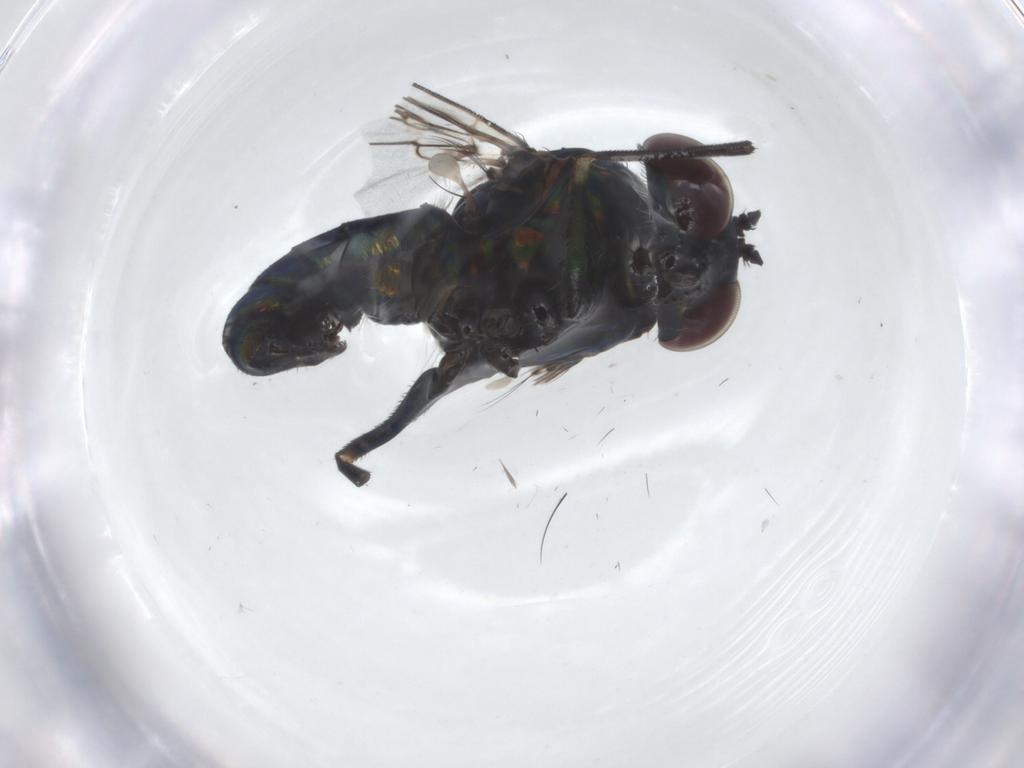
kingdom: Animalia
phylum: Arthropoda
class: Insecta
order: Diptera
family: Dolichopodidae
